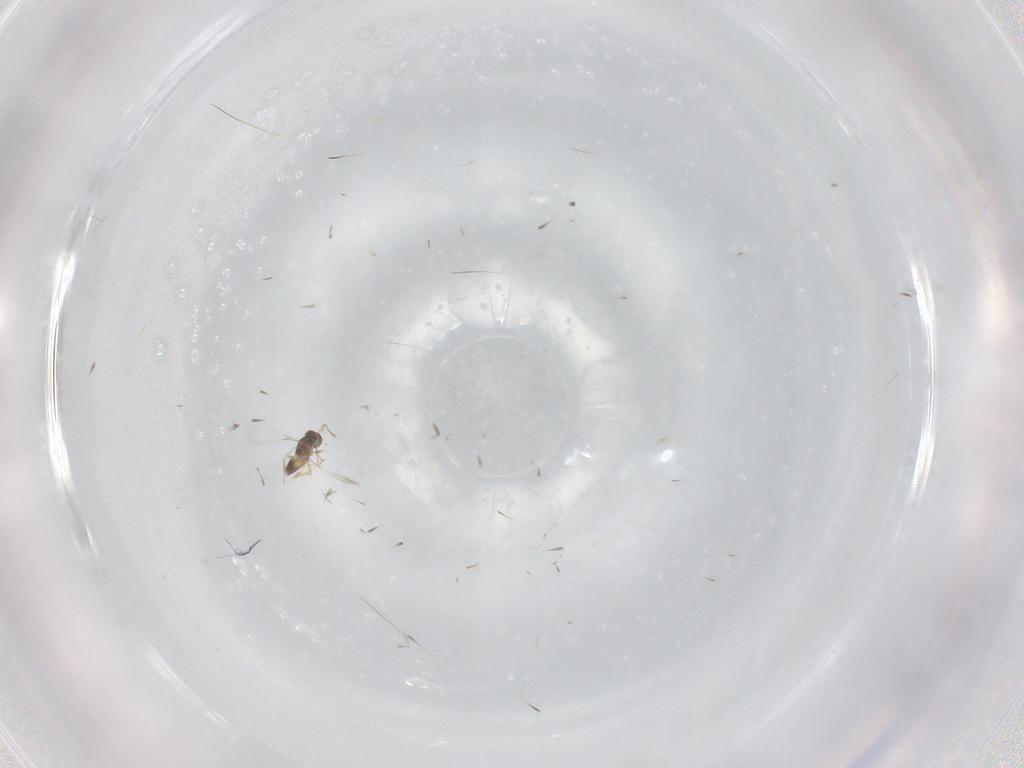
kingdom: Animalia
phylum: Arthropoda
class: Insecta
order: Hymenoptera
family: Mymaridae
